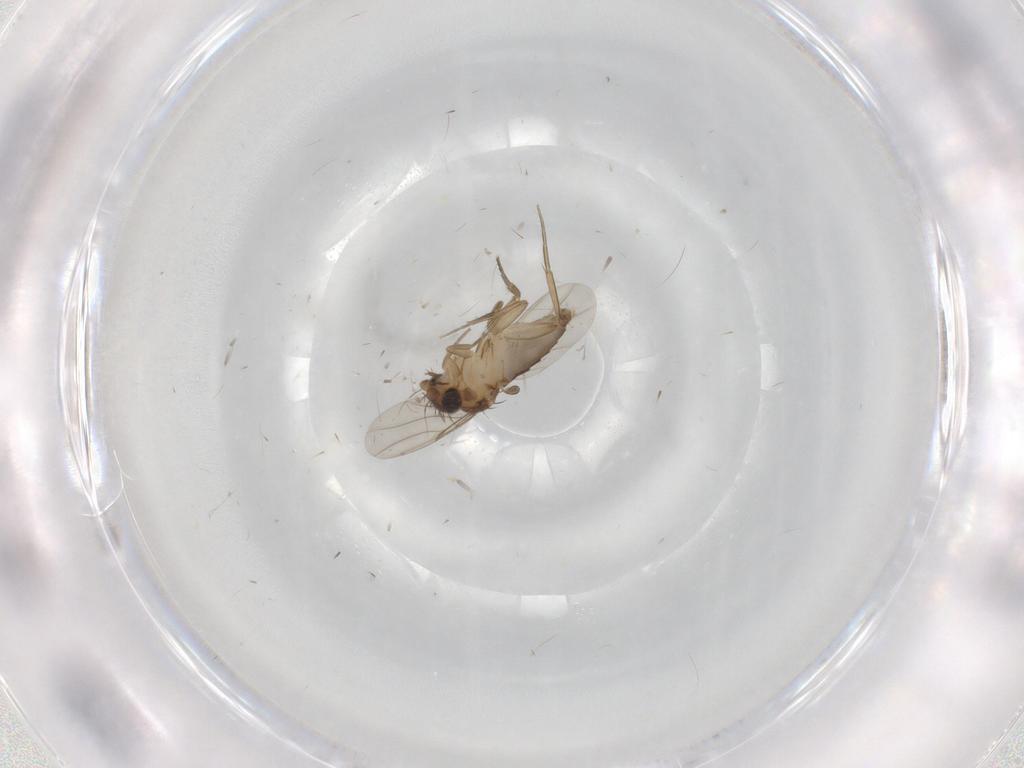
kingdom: Animalia
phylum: Arthropoda
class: Insecta
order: Diptera
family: Phoridae
